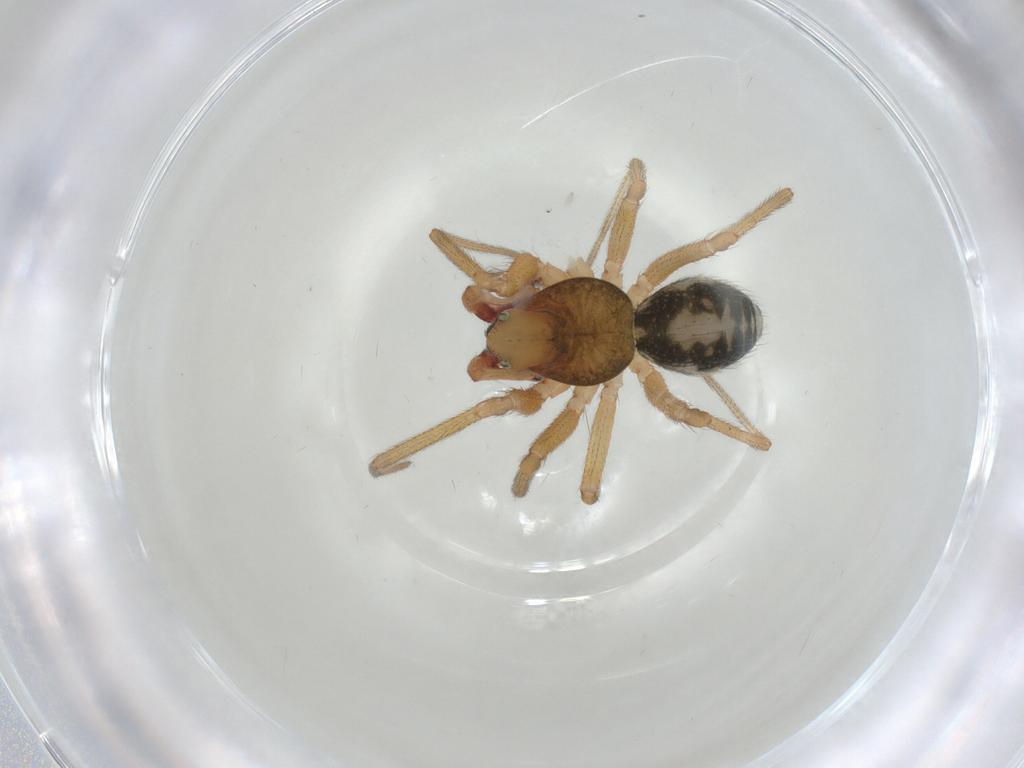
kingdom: Animalia
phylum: Arthropoda
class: Arachnida
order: Araneae
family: Linyphiidae
